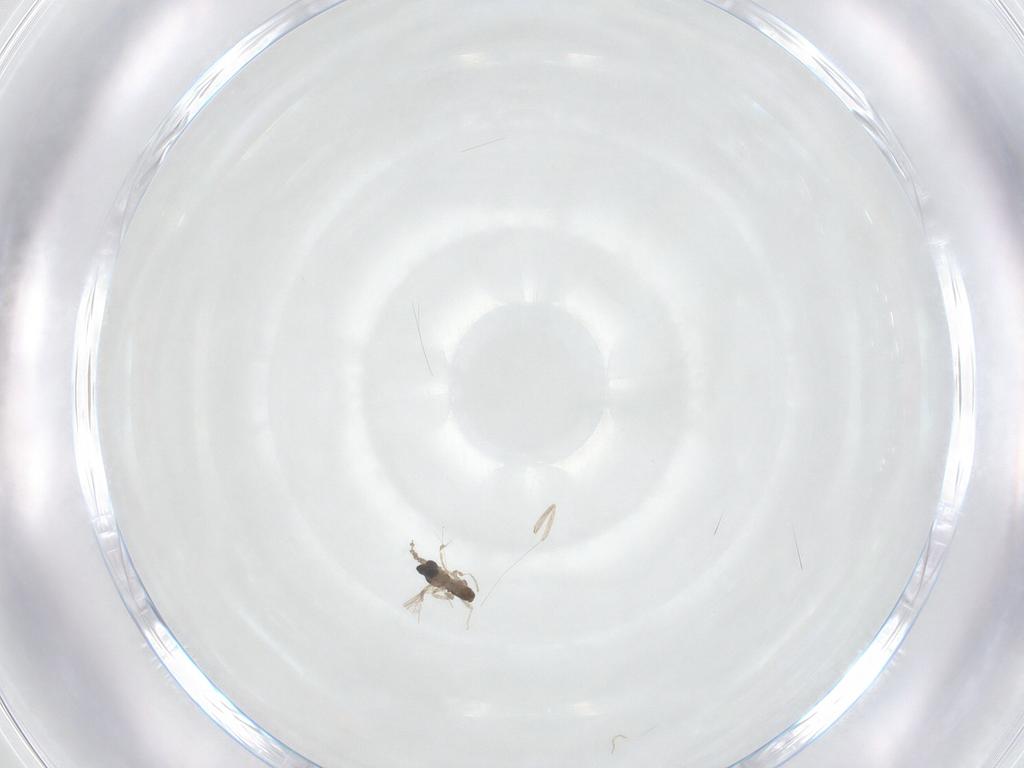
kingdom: Animalia
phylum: Arthropoda
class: Insecta
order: Diptera
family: Cecidomyiidae
